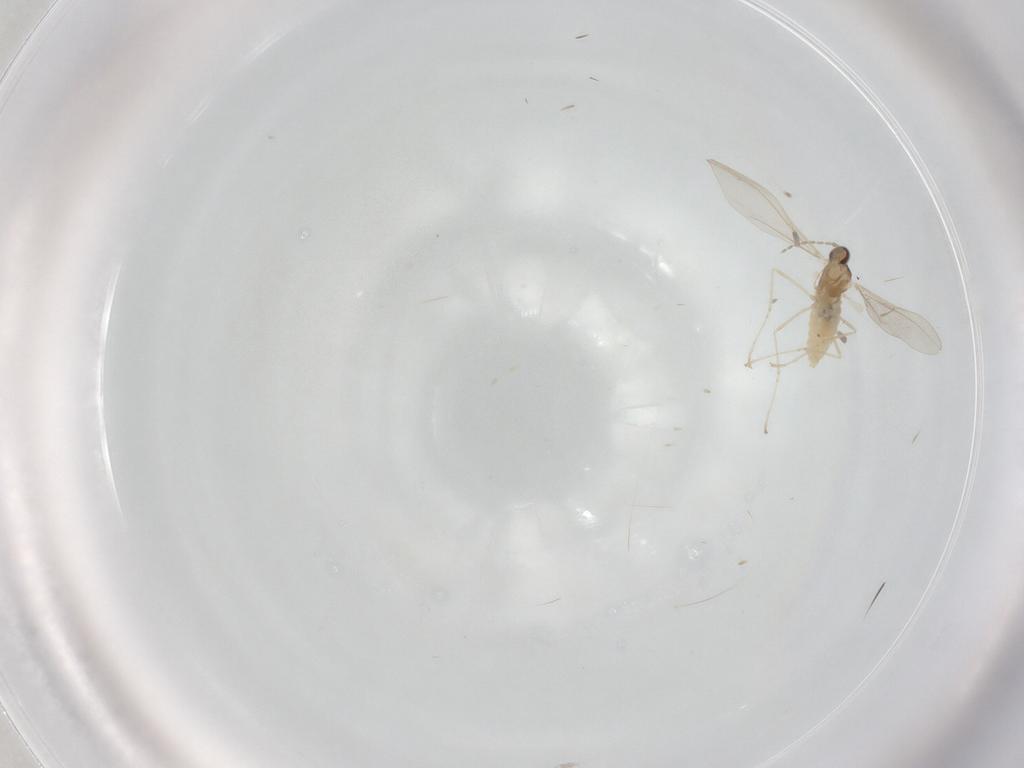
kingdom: Animalia
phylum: Arthropoda
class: Insecta
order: Diptera
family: Cecidomyiidae
